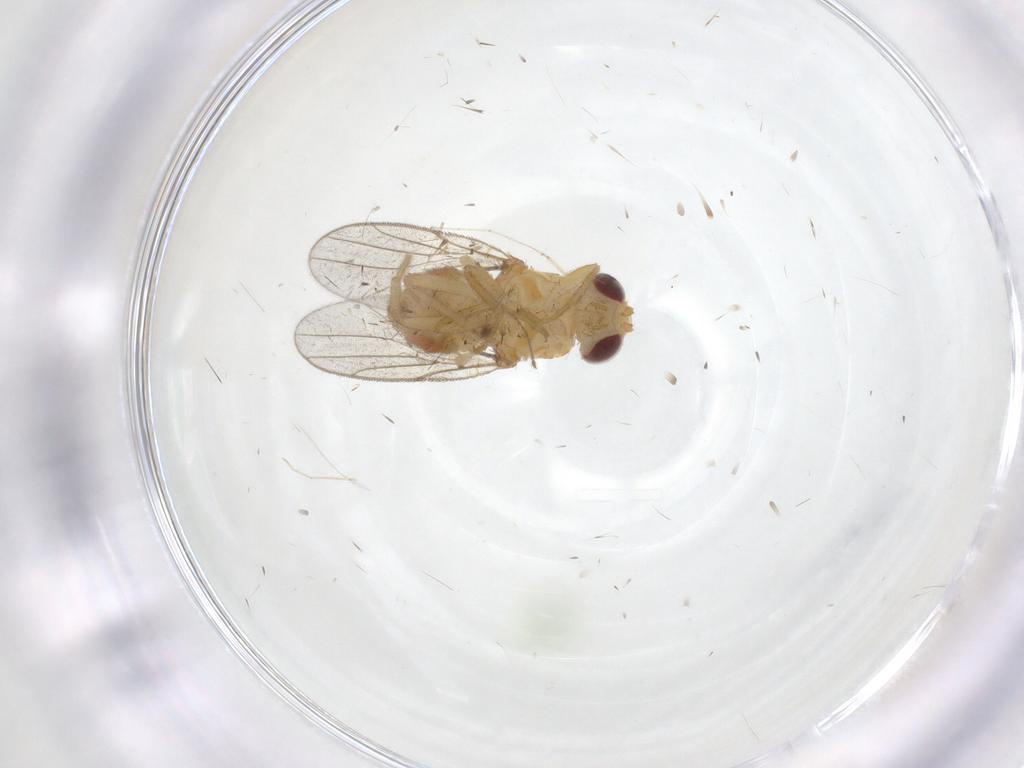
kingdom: Animalia
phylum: Arthropoda
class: Insecta
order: Diptera
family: Chloropidae
